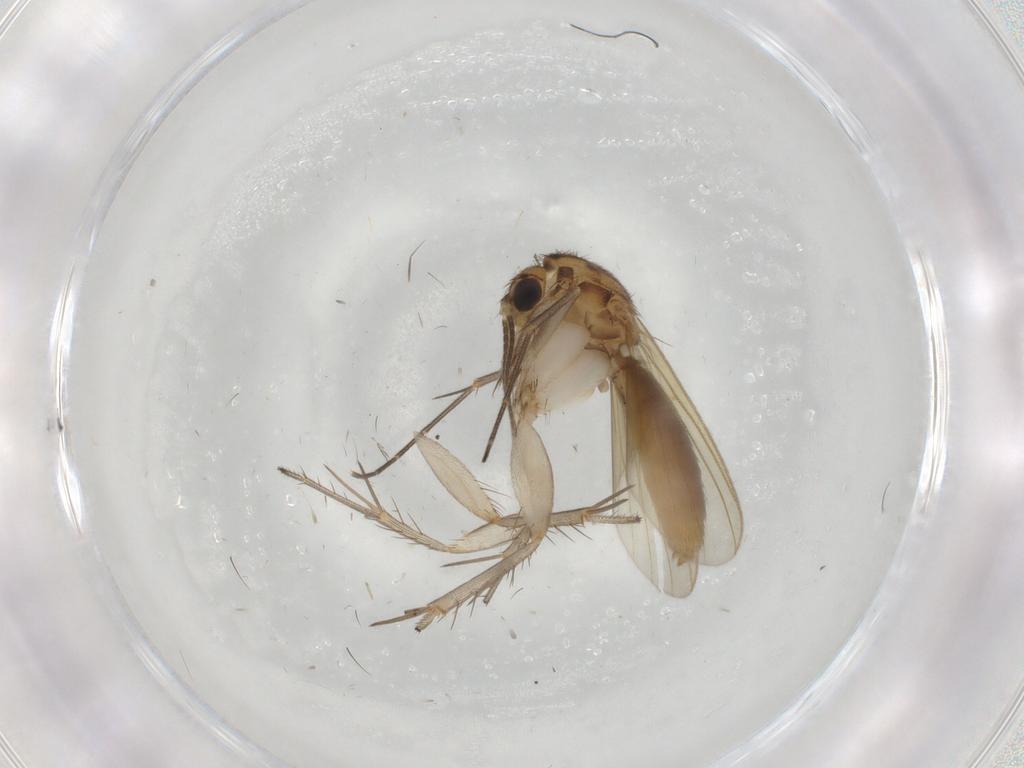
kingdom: Animalia
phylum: Arthropoda
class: Insecta
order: Diptera
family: Mycetophilidae
